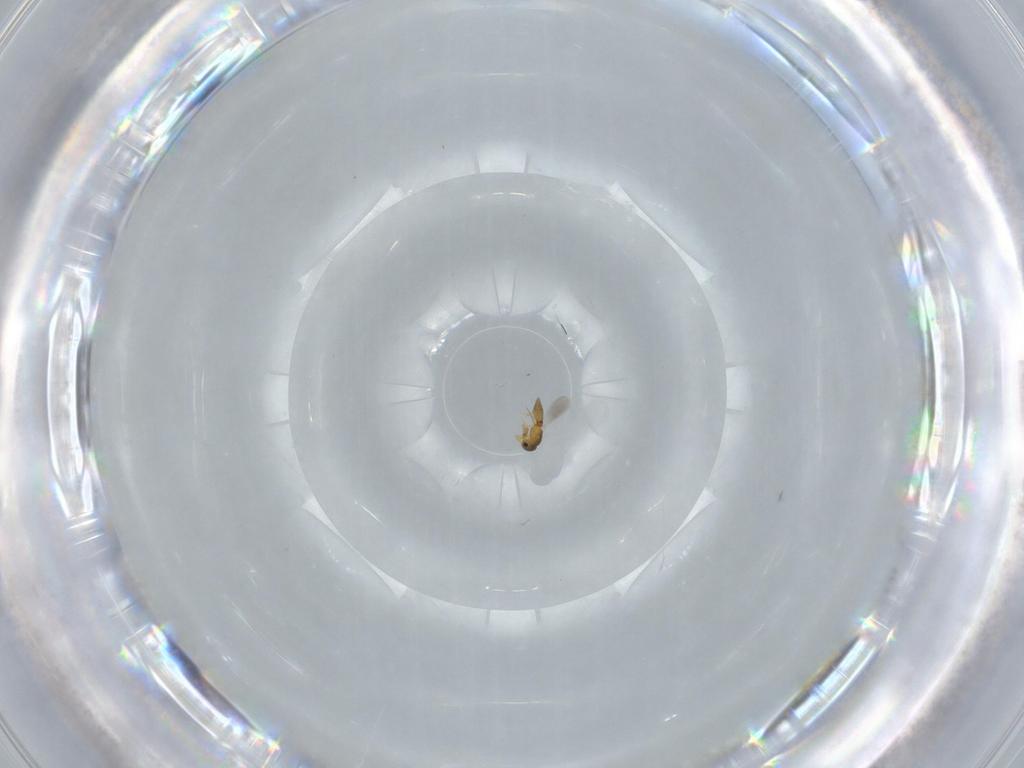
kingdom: Animalia
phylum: Arthropoda
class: Insecta
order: Hymenoptera
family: Platygastridae
